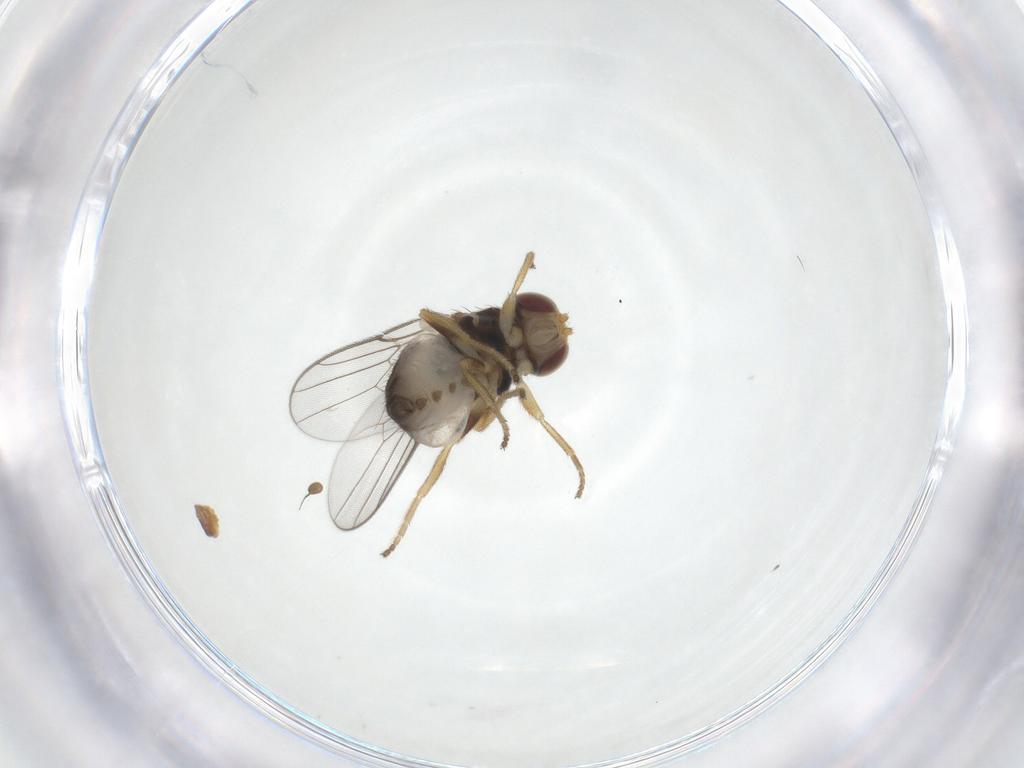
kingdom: Animalia
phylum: Arthropoda
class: Insecta
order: Diptera
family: Chloropidae
